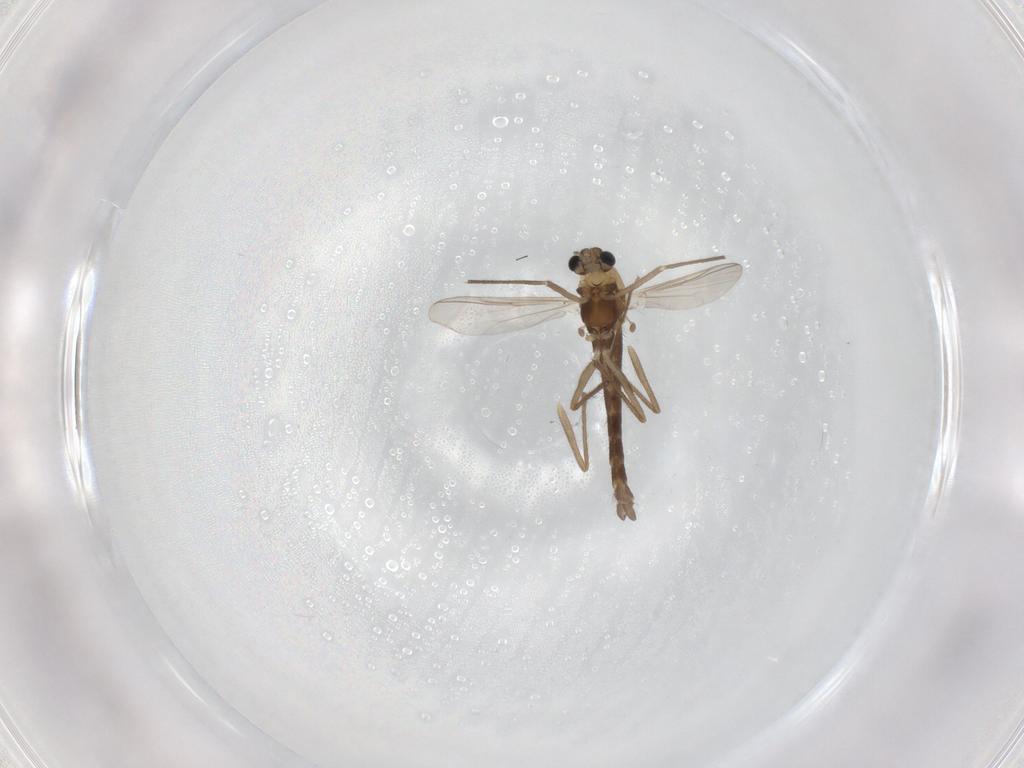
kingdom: Animalia
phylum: Arthropoda
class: Insecta
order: Diptera
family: Chironomidae
